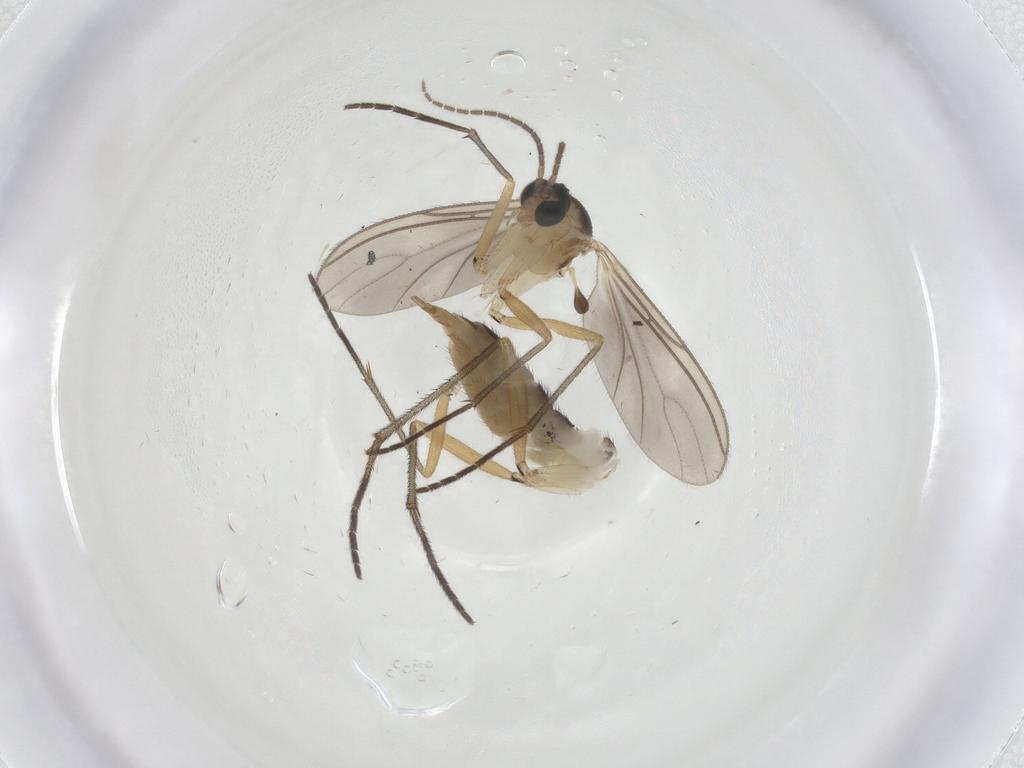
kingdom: Animalia
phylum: Arthropoda
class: Insecta
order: Diptera
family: Sciaridae
